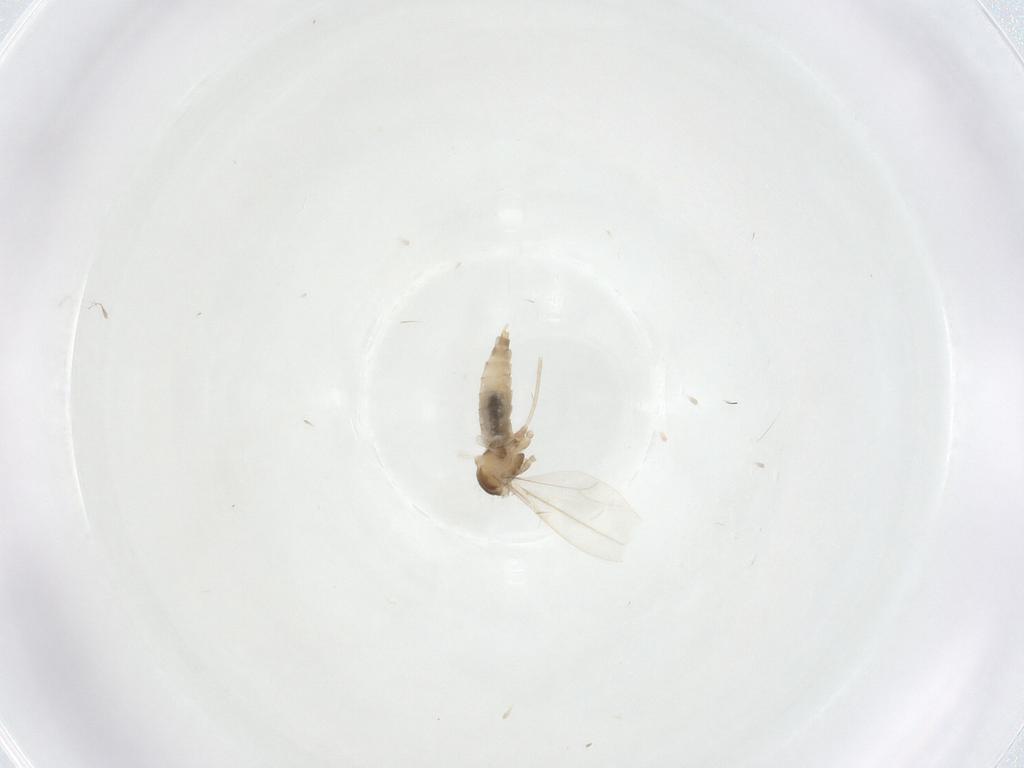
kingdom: Animalia
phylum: Arthropoda
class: Insecta
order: Diptera
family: Cecidomyiidae
